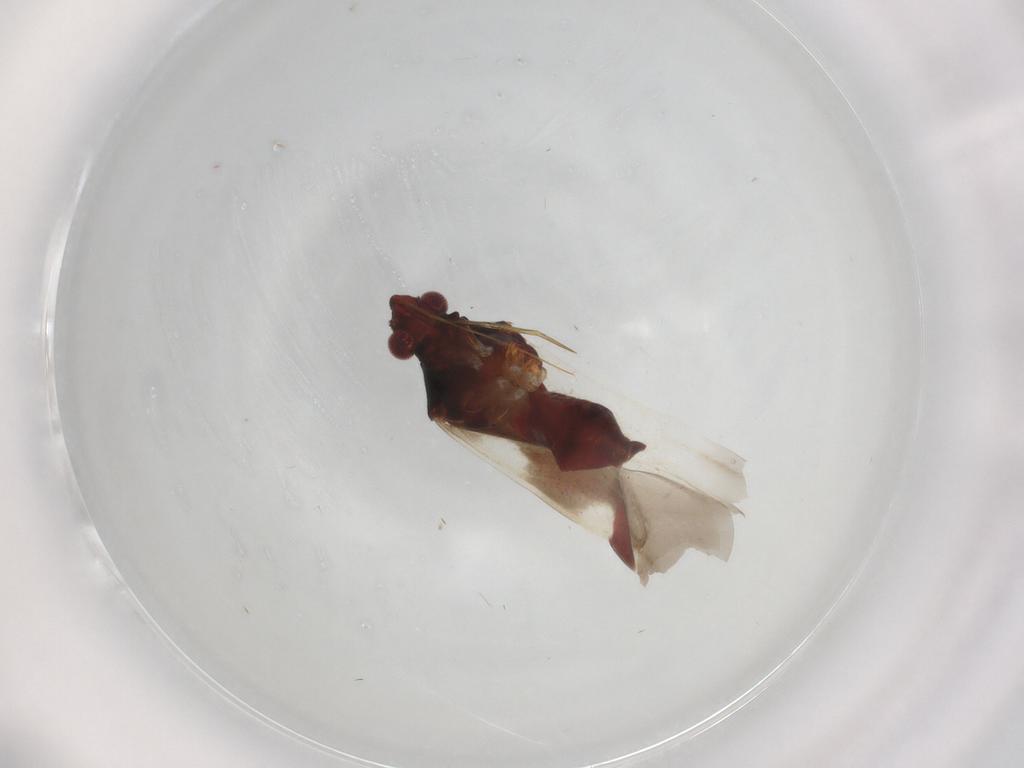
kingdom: Animalia
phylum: Arthropoda
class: Insecta
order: Hemiptera
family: Miridae
